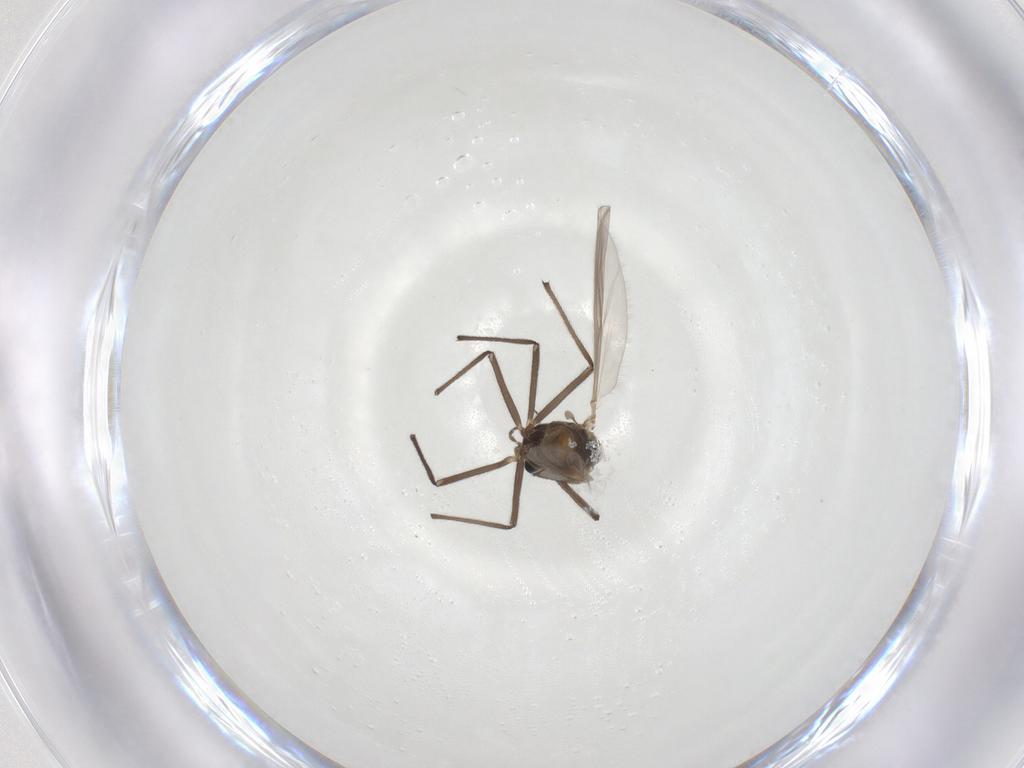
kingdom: Animalia
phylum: Arthropoda
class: Insecta
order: Diptera
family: Chironomidae
